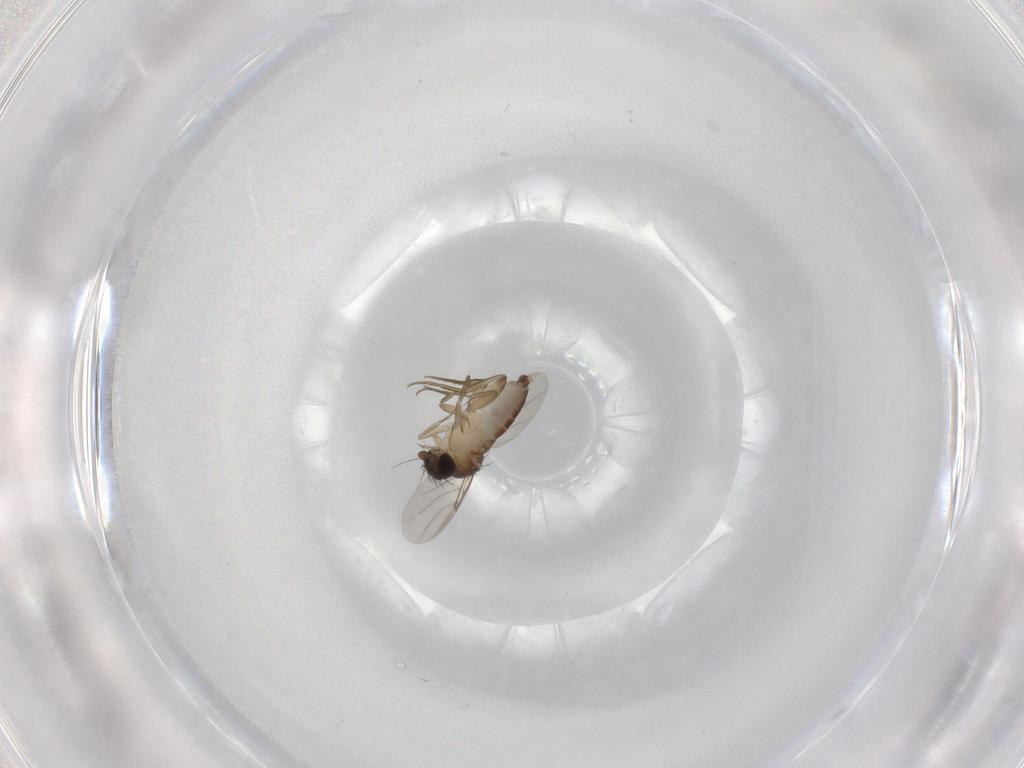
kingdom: Animalia
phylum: Arthropoda
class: Insecta
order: Diptera
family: Phoridae
